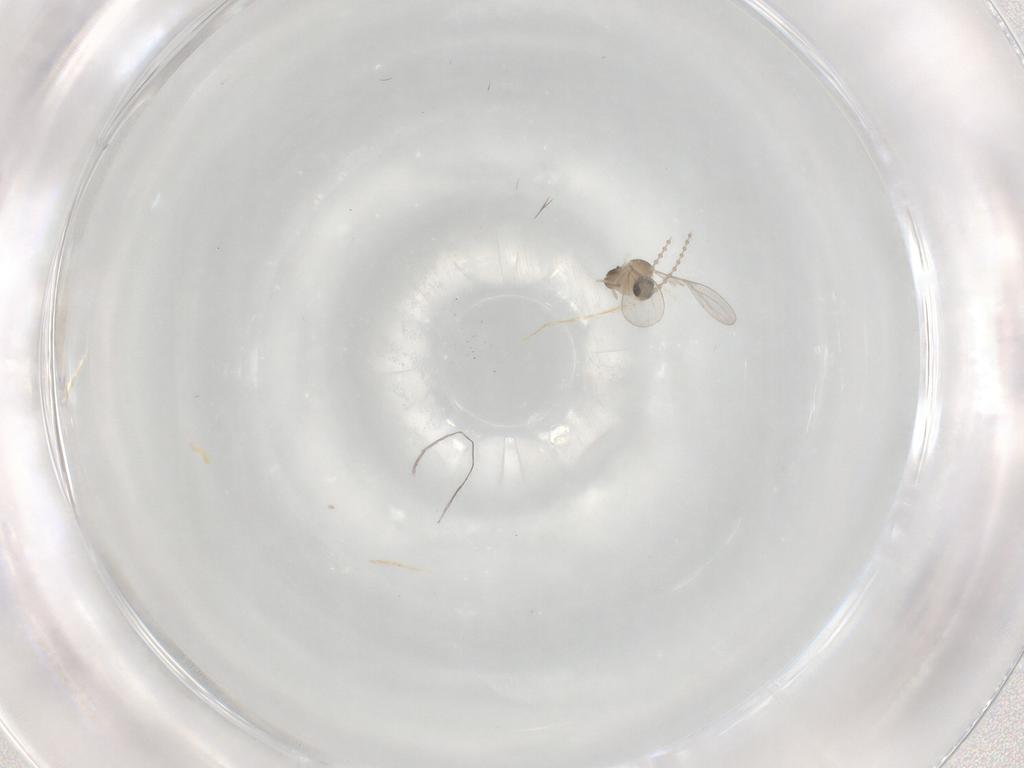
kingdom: Animalia
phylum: Arthropoda
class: Insecta
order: Diptera
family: Cecidomyiidae
